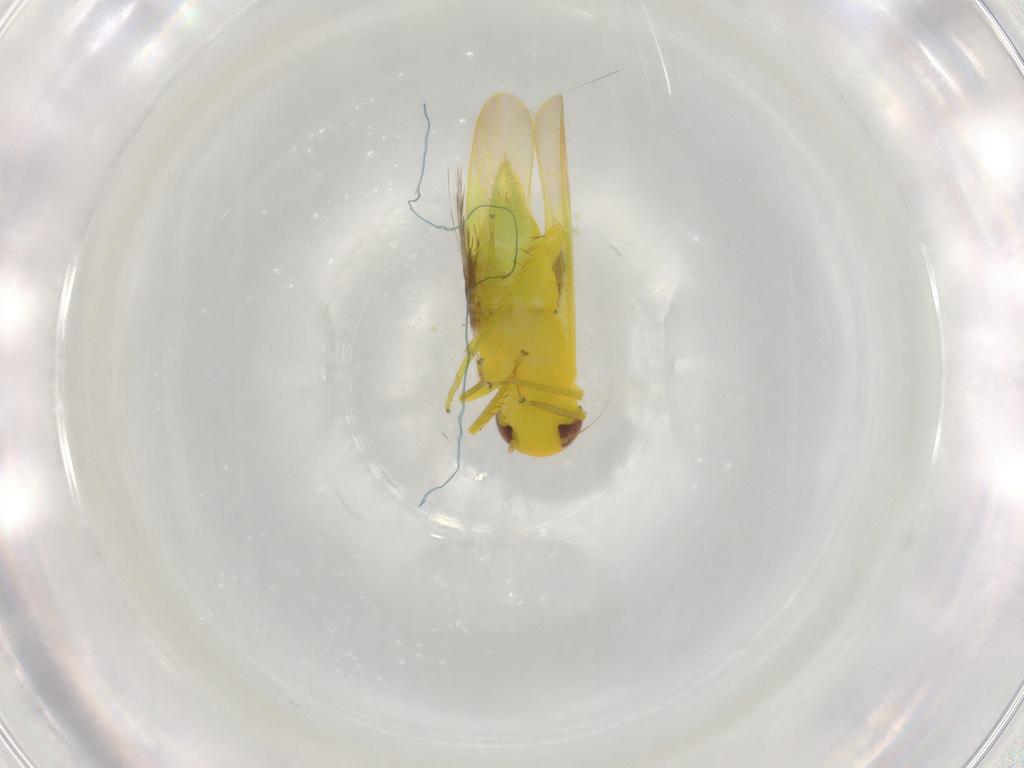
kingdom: Animalia
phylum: Arthropoda
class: Insecta
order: Hemiptera
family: Cicadellidae
